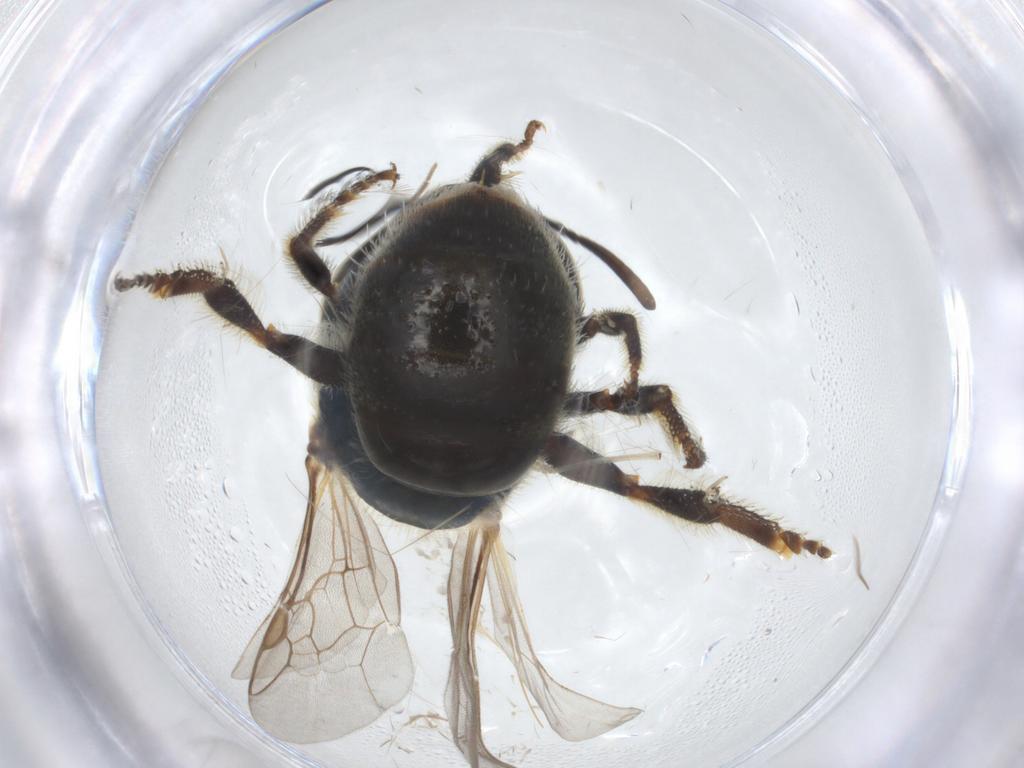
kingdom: Animalia
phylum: Arthropoda
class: Insecta
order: Hymenoptera
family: Halictidae
